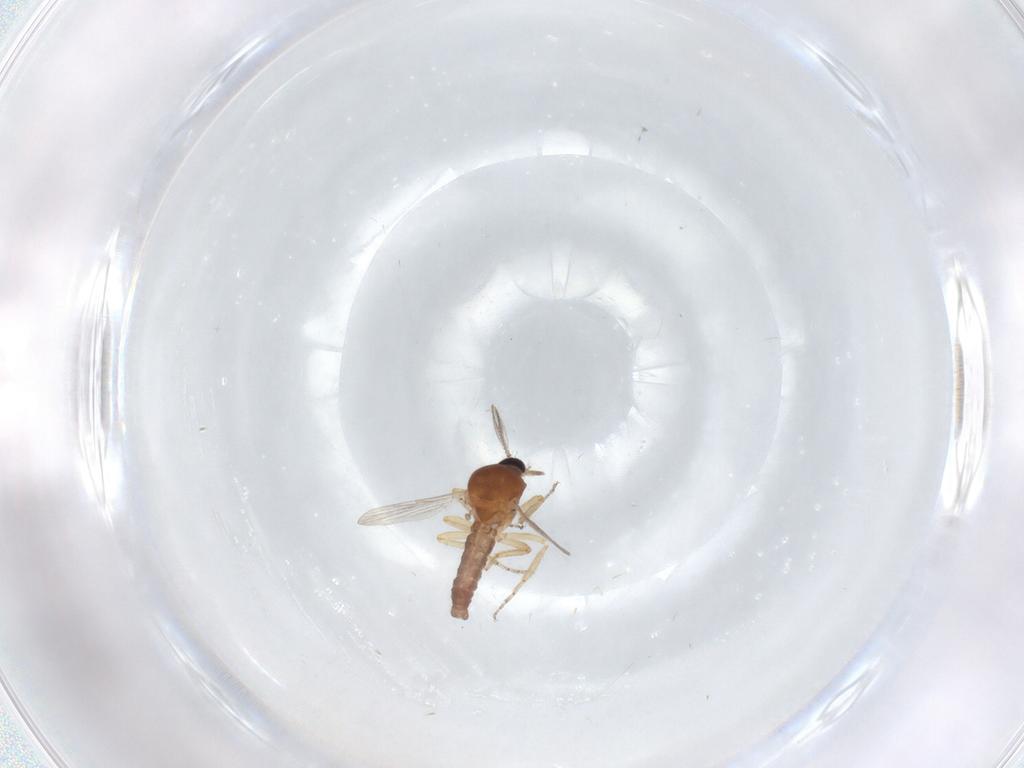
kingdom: Animalia
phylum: Arthropoda
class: Insecta
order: Diptera
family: Ceratopogonidae
